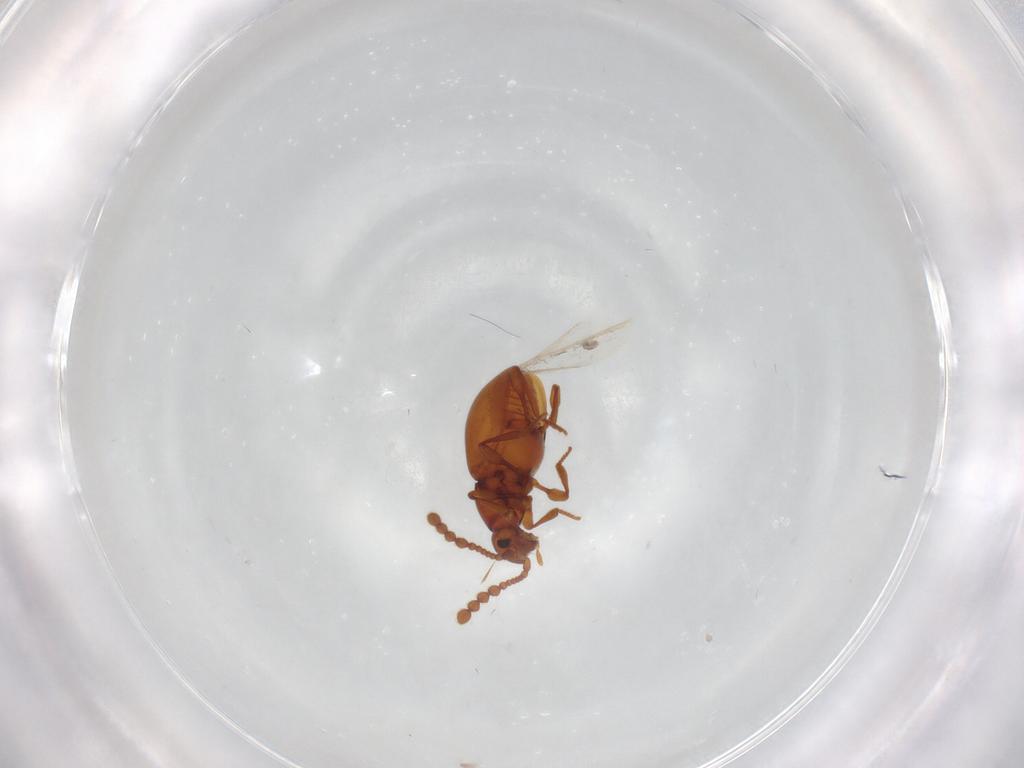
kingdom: Animalia
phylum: Arthropoda
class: Insecta
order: Coleoptera
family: Staphylinidae
